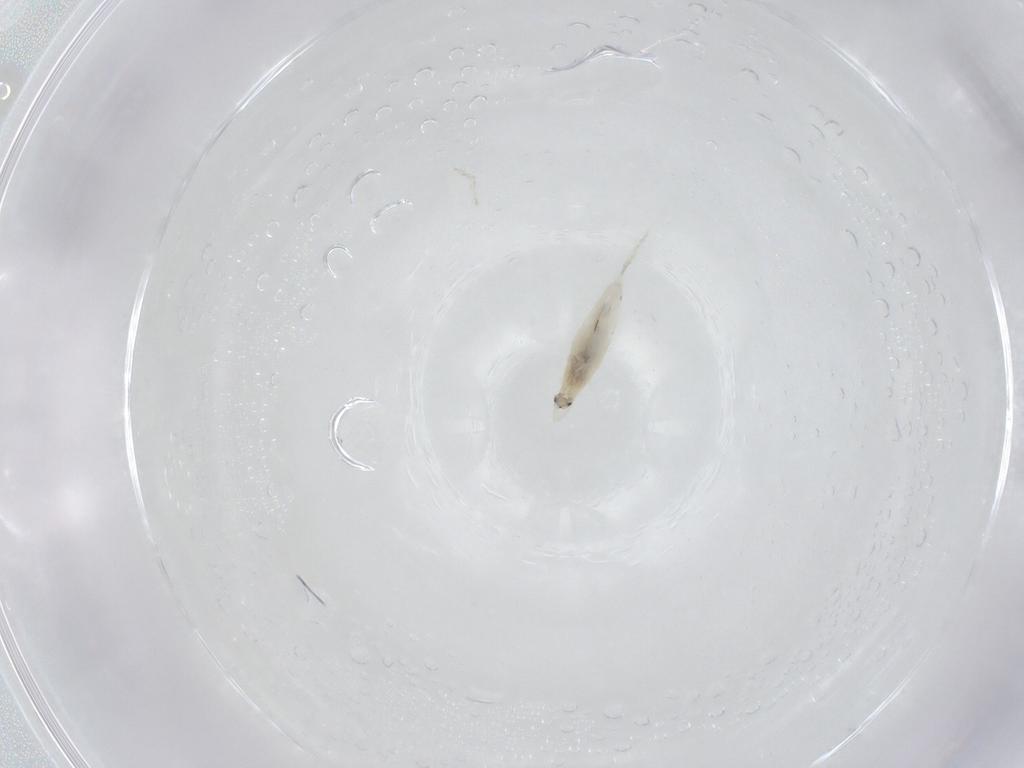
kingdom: Animalia
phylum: Arthropoda
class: Collembola
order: Entomobryomorpha
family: Entomobryidae
